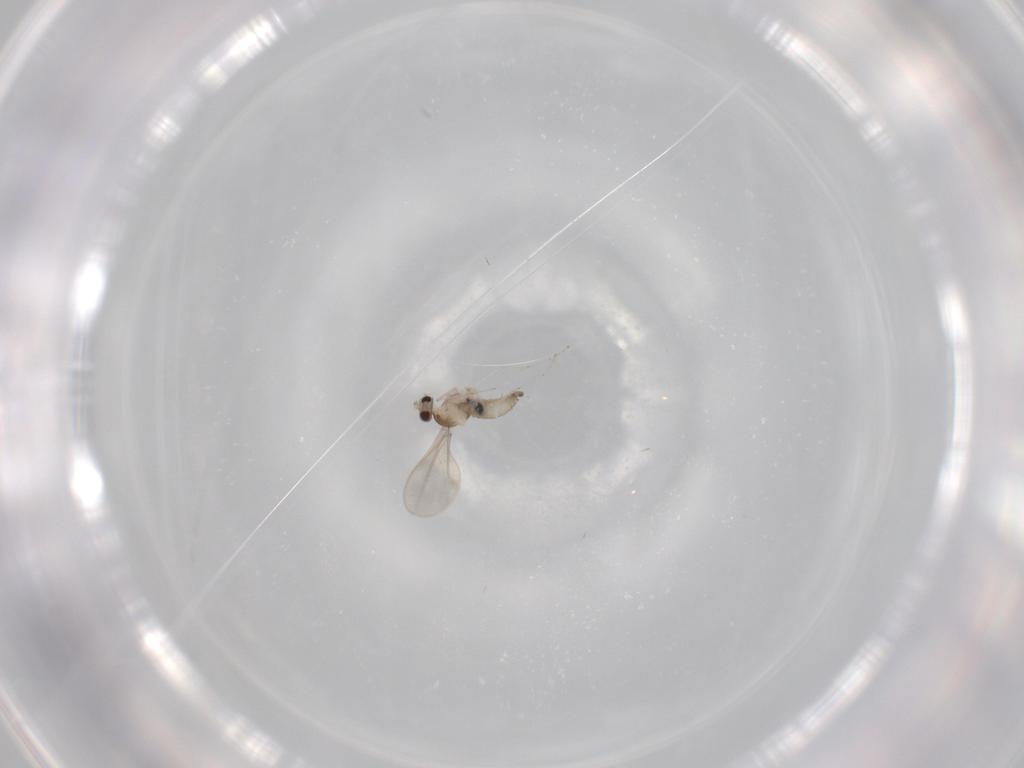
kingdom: Animalia
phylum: Arthropoda
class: Insecta
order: Diptera
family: Cecidomyiidae
